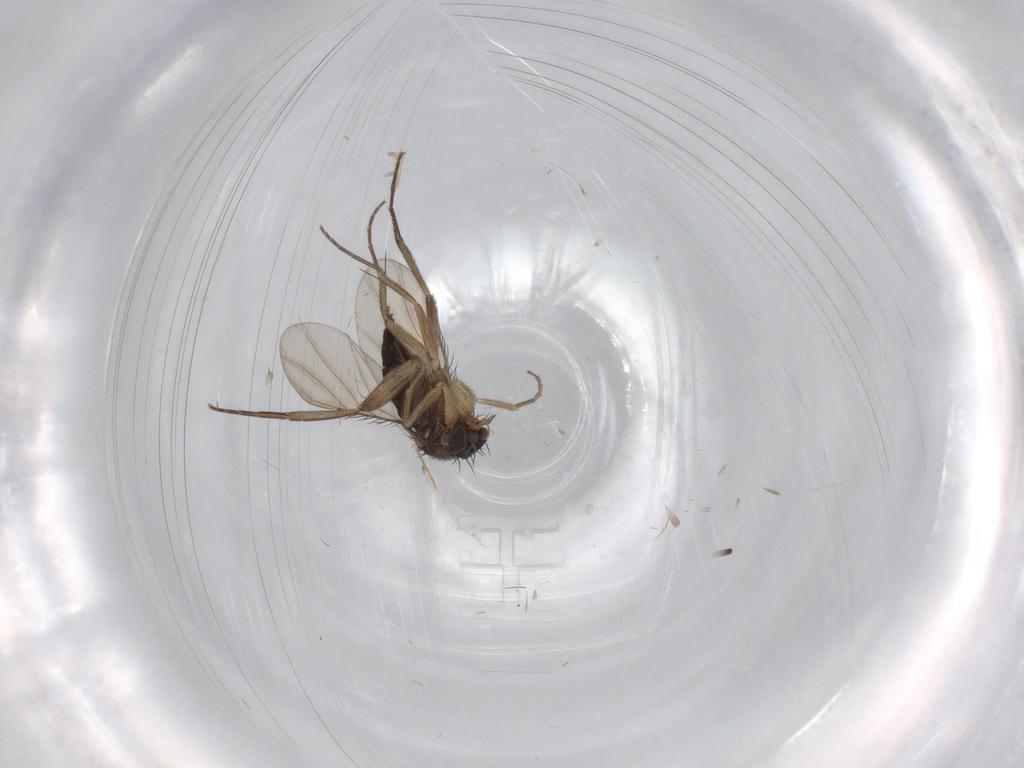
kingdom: Animalia
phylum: Arthropoda
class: Insecta
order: Diptera
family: Phoridae
